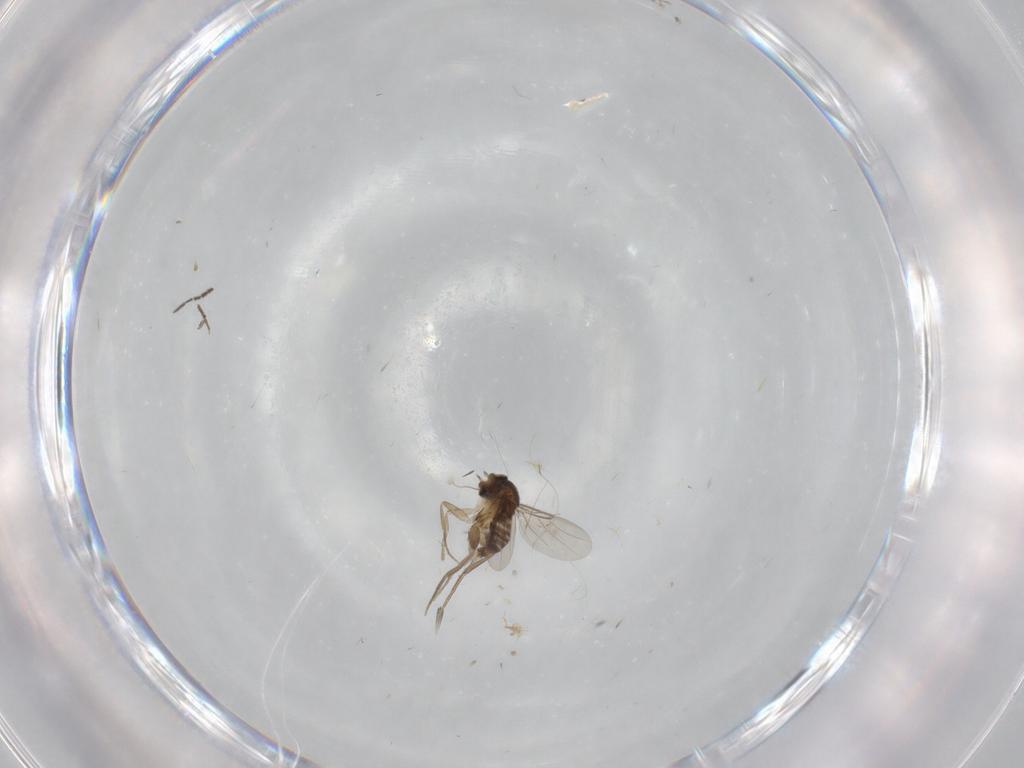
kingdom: Animalia
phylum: Arthropoda
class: Insecta
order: Diptera
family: Phoridae
